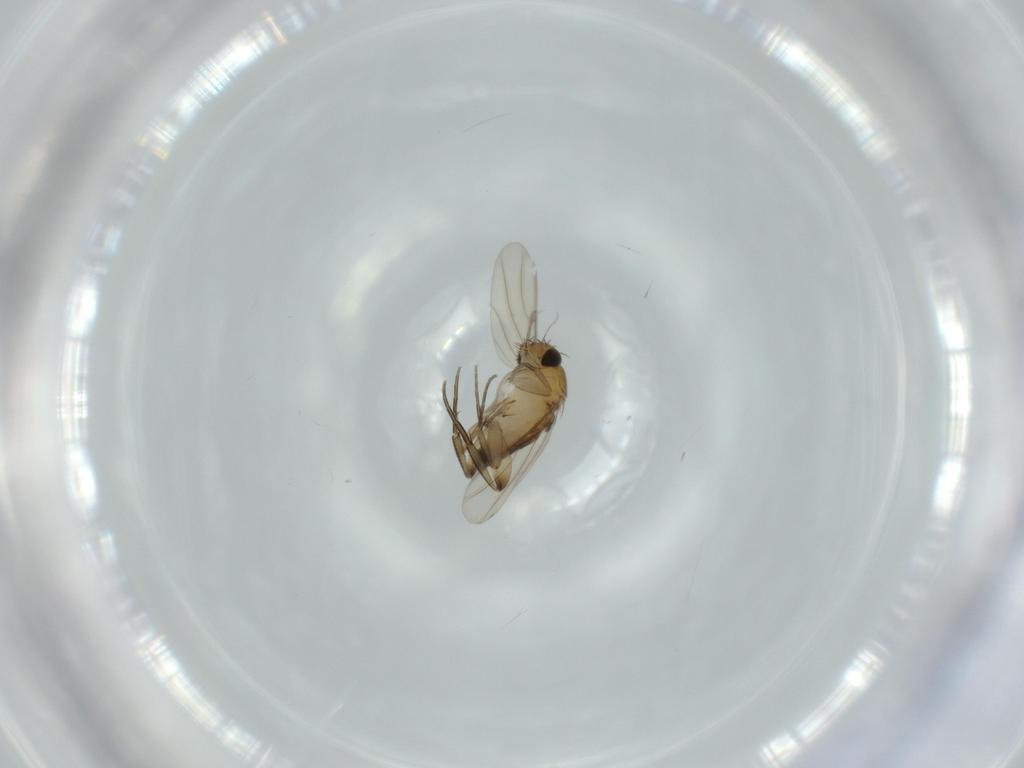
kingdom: Animalia
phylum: Arthropoda
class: Insecta
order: Diptera
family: Phoridae
